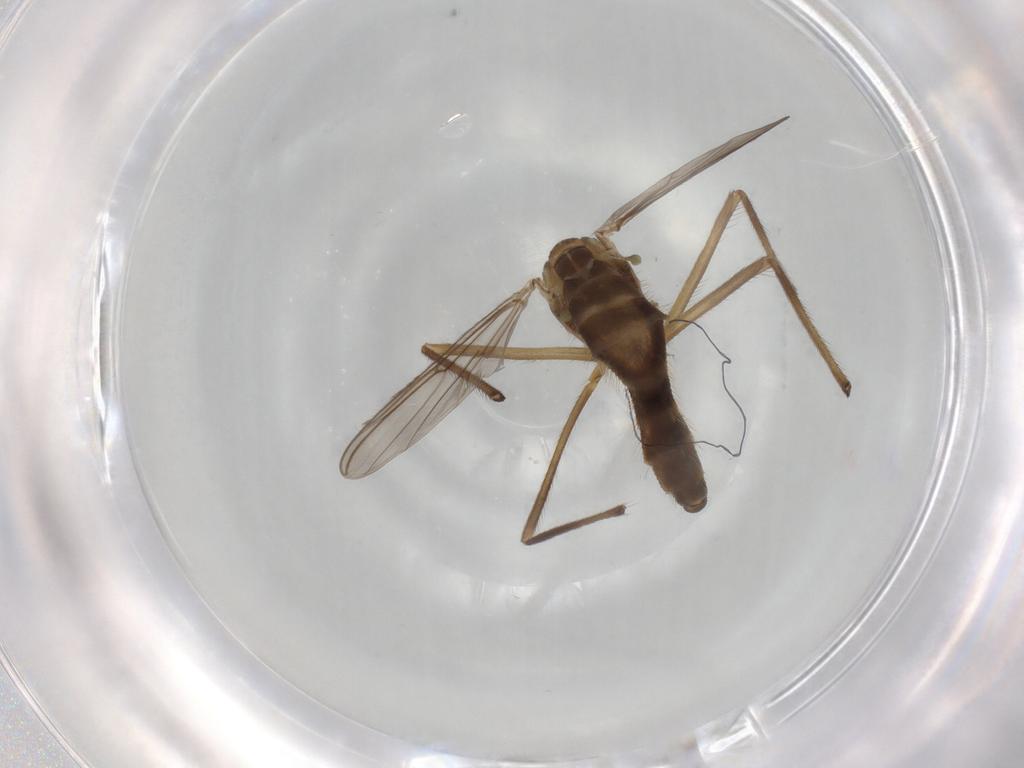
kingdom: Animalia
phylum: Arthropoda
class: Insecta
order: Diptera
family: Chironomidae
